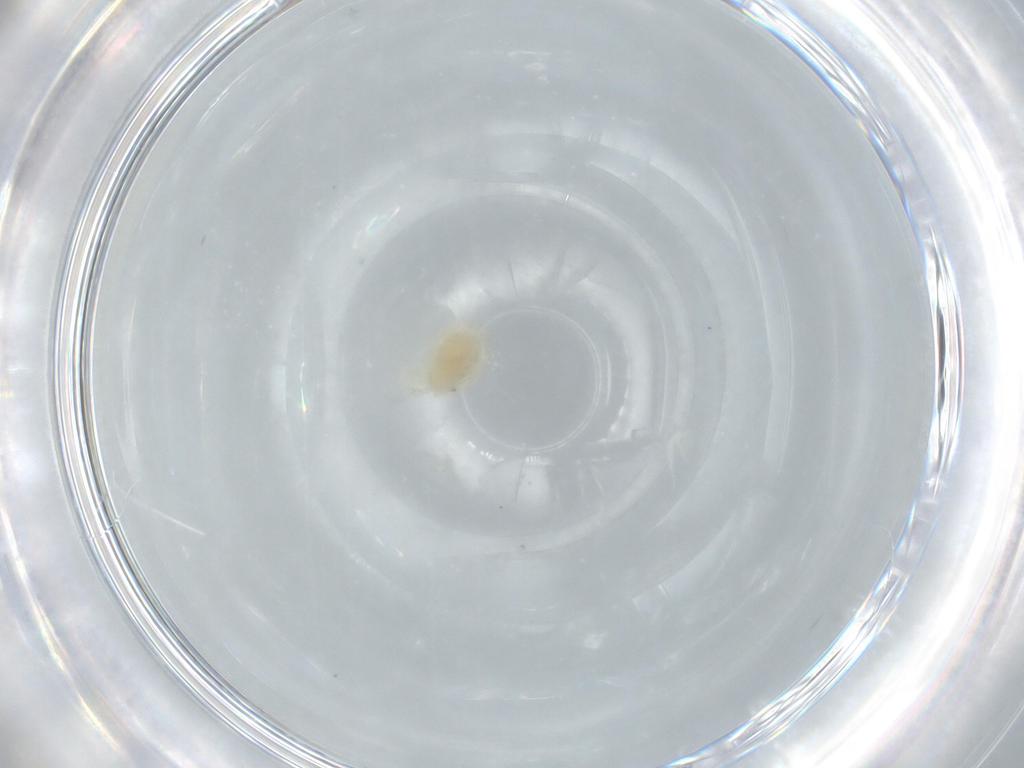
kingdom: Animalia
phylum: Arthropoda
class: Arachnida
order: Trombidiformes
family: Anystidae
